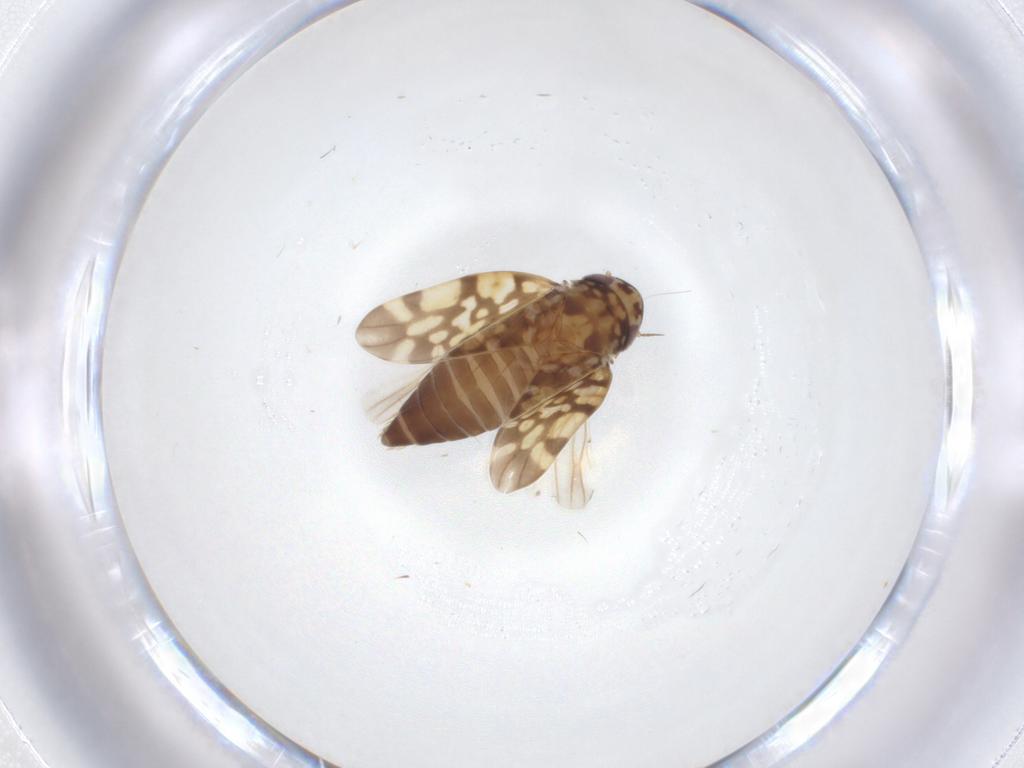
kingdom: Animalia
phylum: Arthropoda
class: Insecta
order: Hemiptera
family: Cicadellidae
